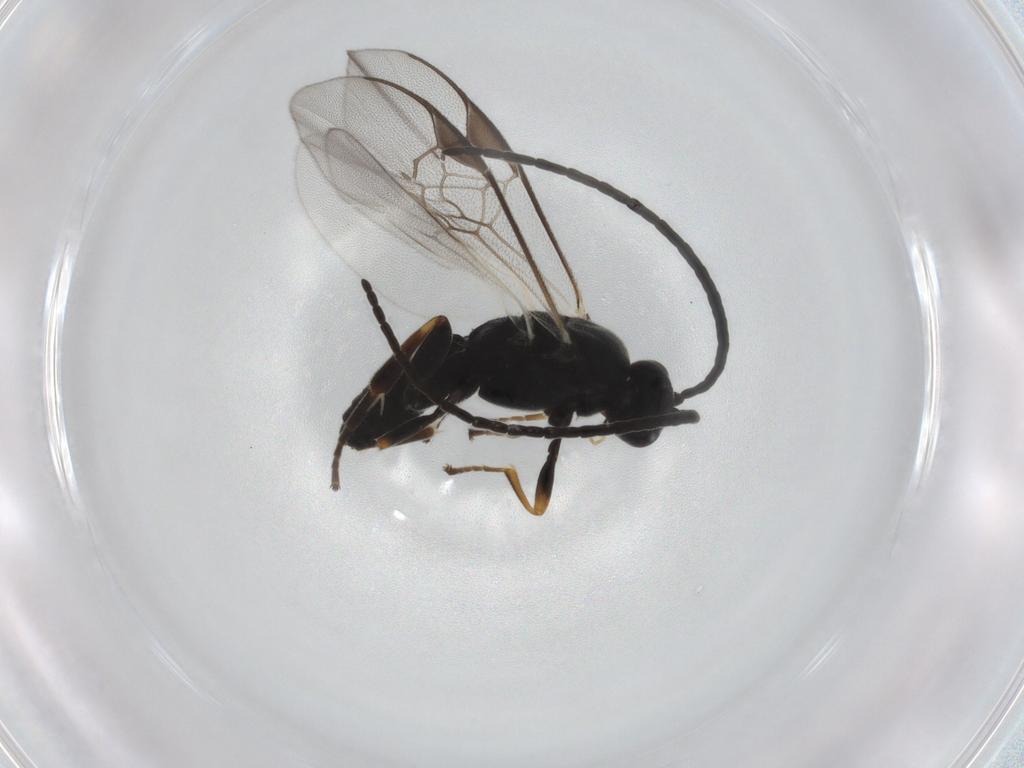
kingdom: Animalia
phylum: Arthropoda
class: Insecta
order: Hymenoptera
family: Braconidae
